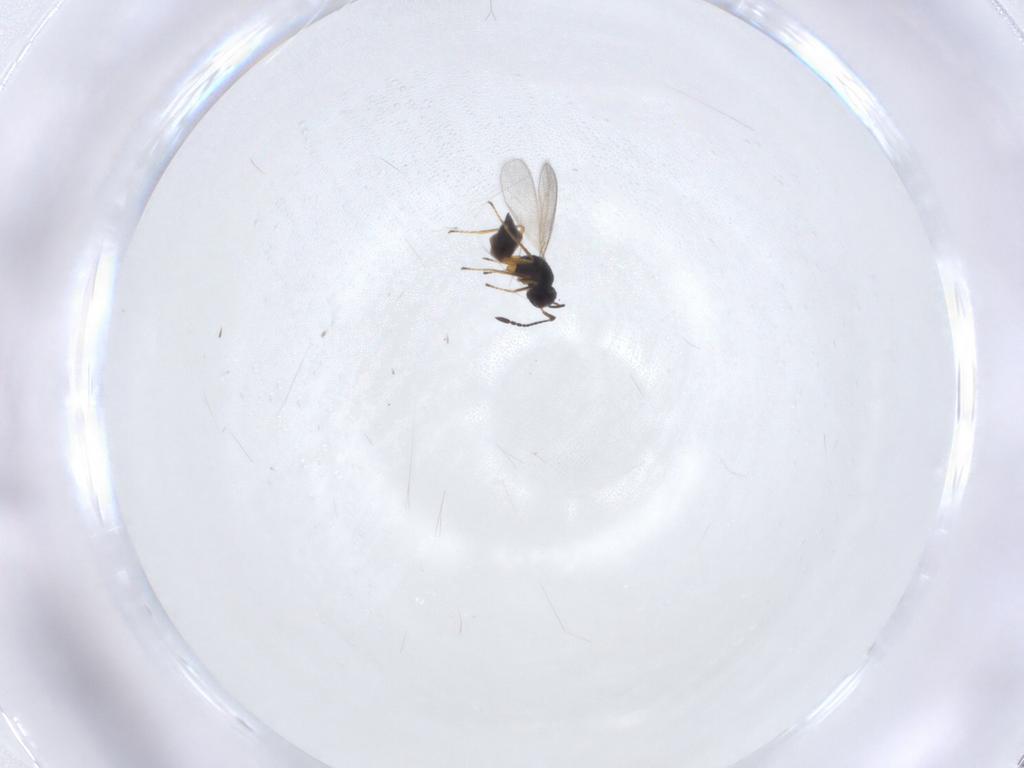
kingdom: Animalia
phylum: Arthropoda
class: Insecta
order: Hymenoptera
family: Mymaridae
